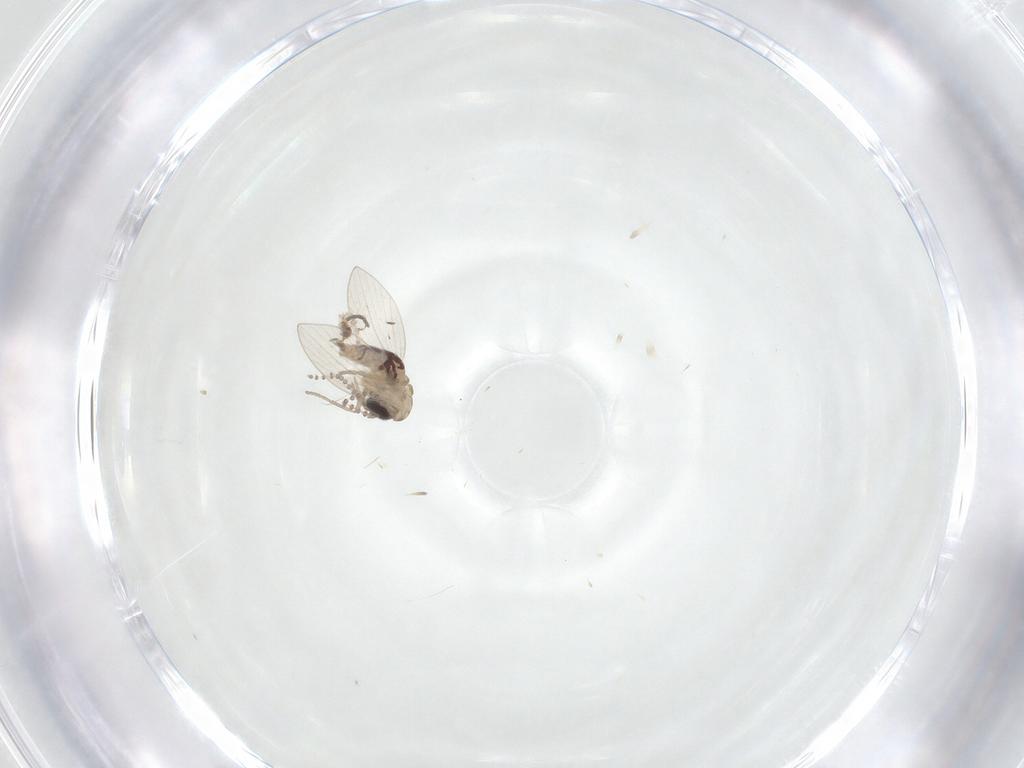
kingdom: Animalia
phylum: Arthropoda
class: Insecta
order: Diptera
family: Psychodidae
